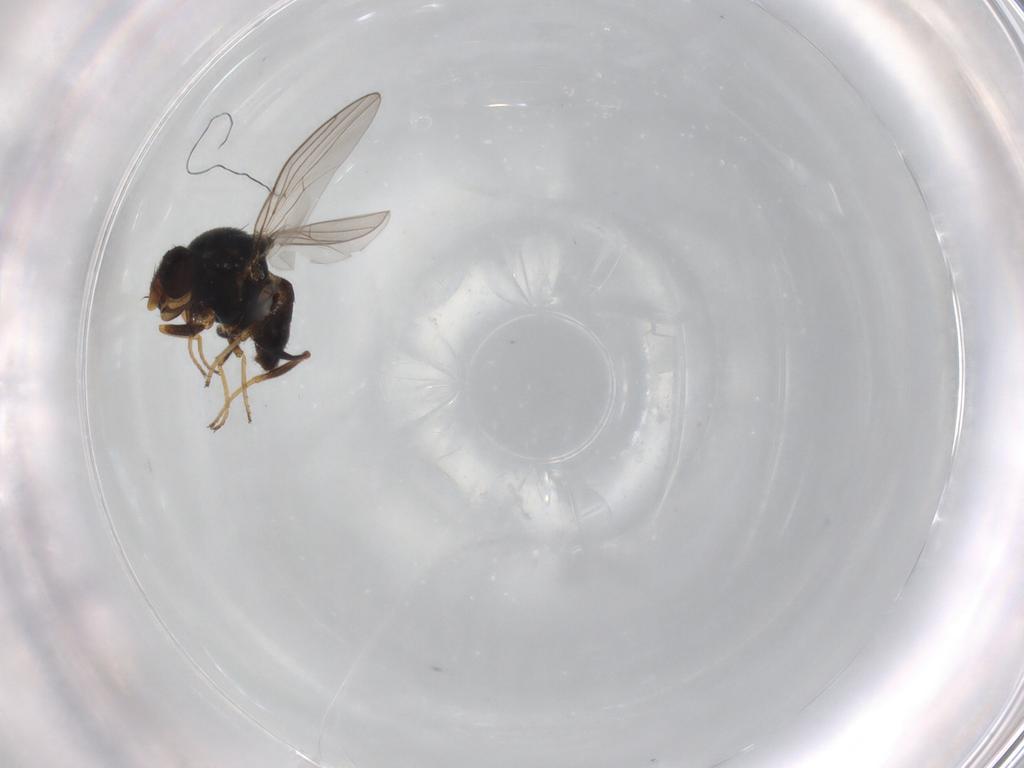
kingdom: Animalia
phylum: Arthropoda
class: Insecta
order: Diptera
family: Chloropidae
